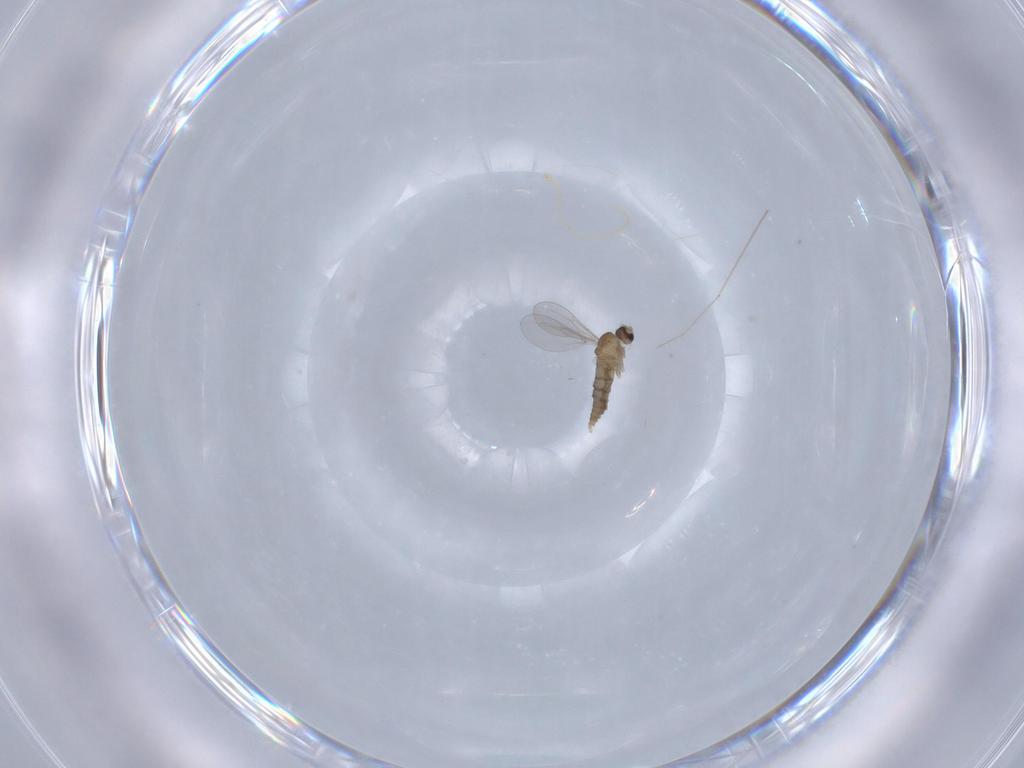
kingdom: Animalia
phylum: Arthropoda
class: Insecta
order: Diptera
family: Cecidomyiidae
